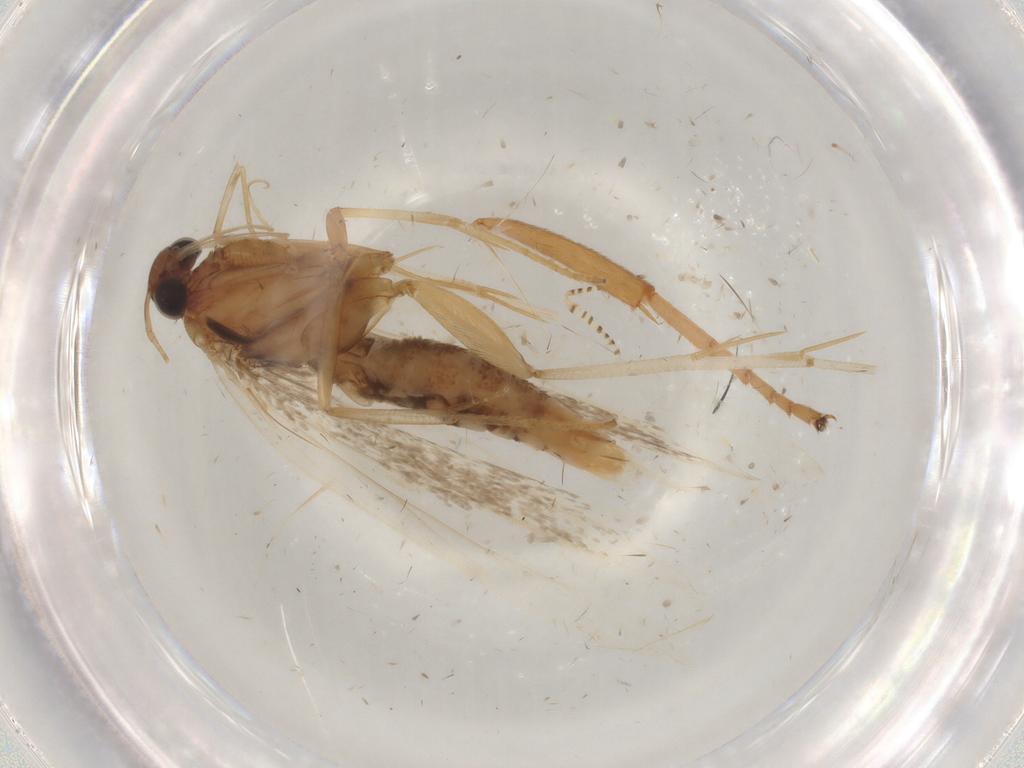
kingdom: Animalia
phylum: Arthropoda
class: Insecta
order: Lepidoptera
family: Gelechiidae
